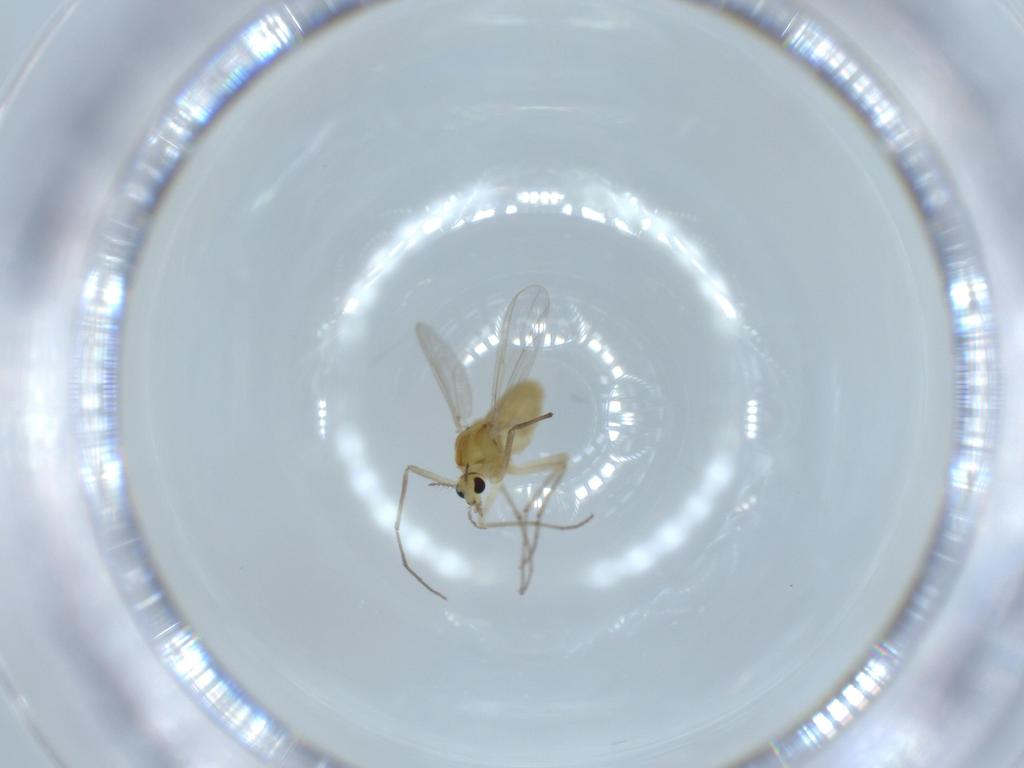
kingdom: Animalia
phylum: Arthropoda
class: Insecta
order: Diptera
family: Chironomidae
